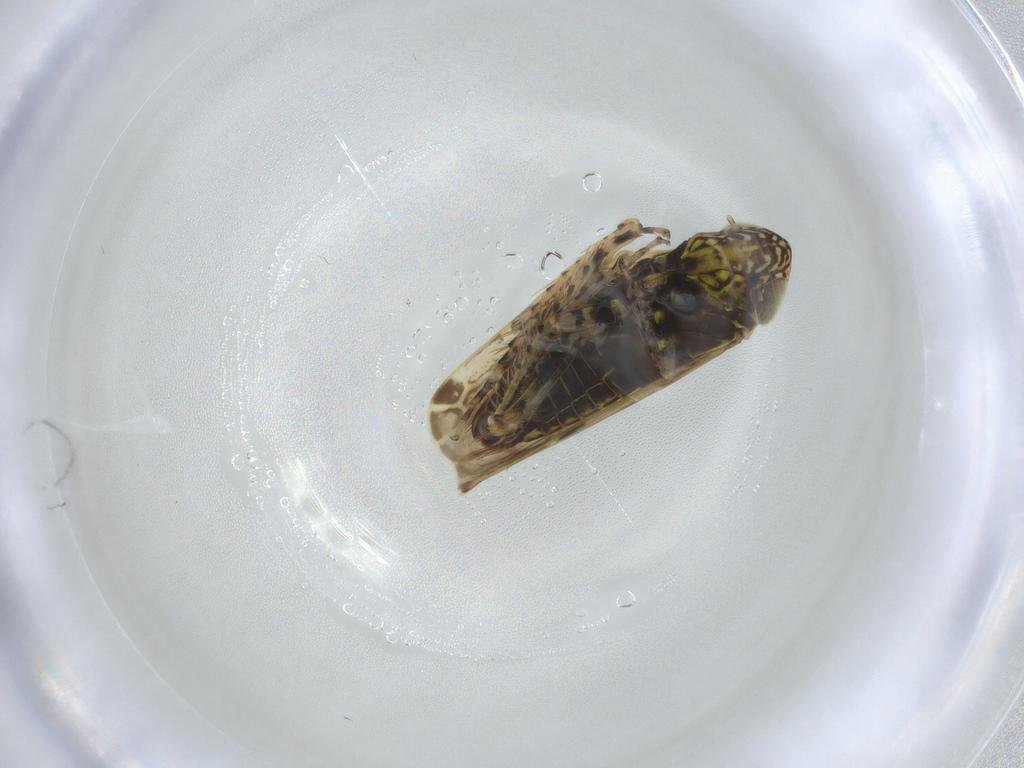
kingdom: Animalia
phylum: Arthropoda
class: Insecta
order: Hemiptera
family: Cicadellidae
